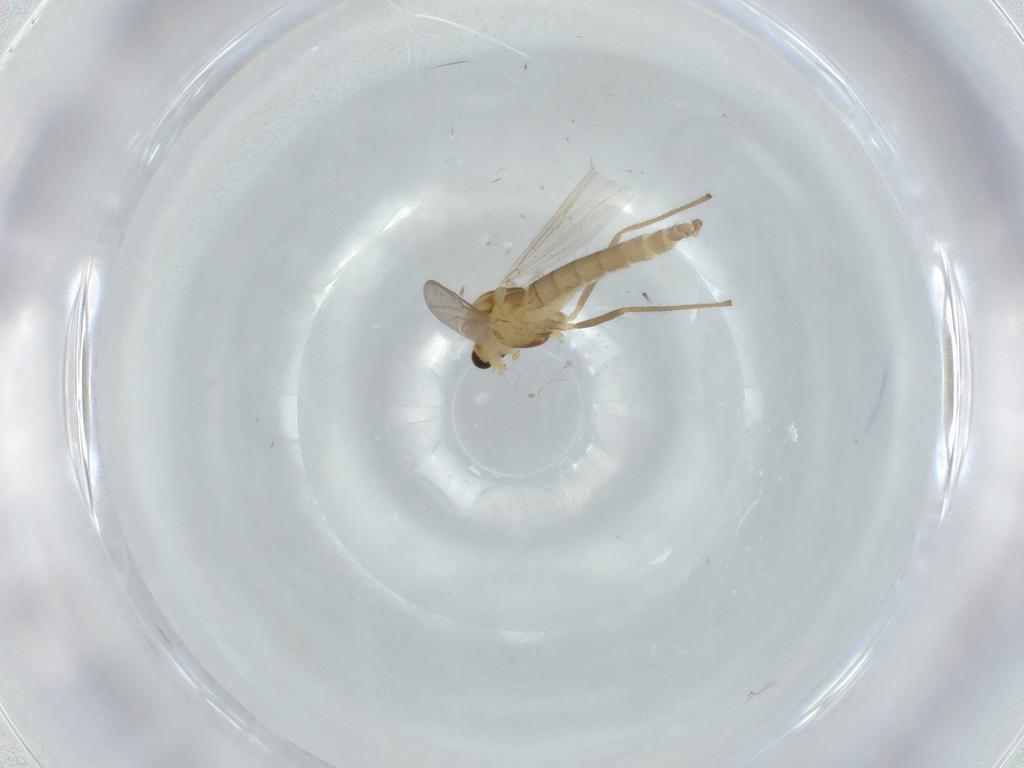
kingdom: Animalia
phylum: Arthropoda
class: Insecta
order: Diptera
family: Chironomidae
